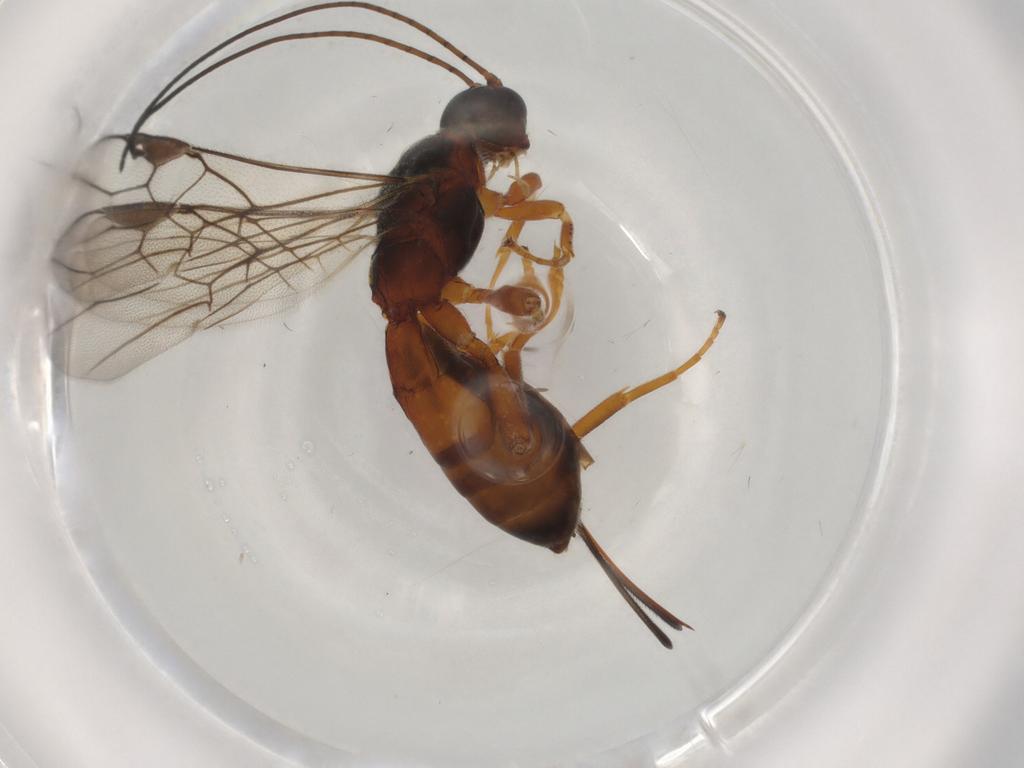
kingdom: Animalia
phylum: Arthropoda
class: Insecta
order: Hymenoptera
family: Braconidae
